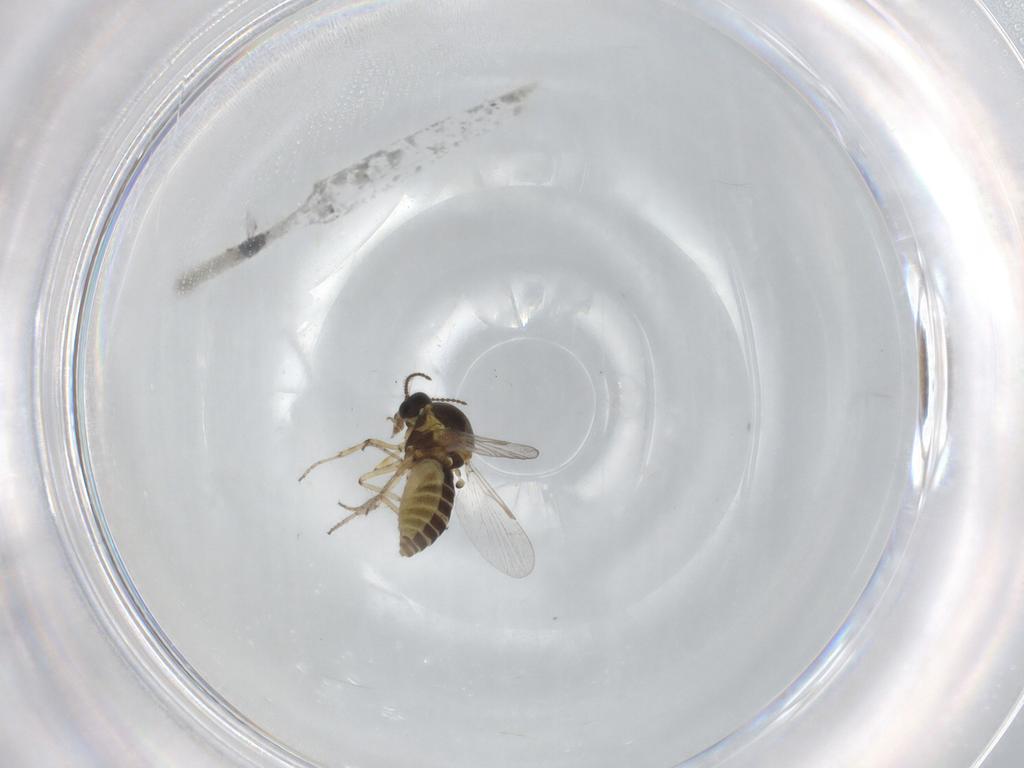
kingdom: Animalia
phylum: Arthropoda
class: Insecta
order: Diptera
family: Ceratopogonidae
